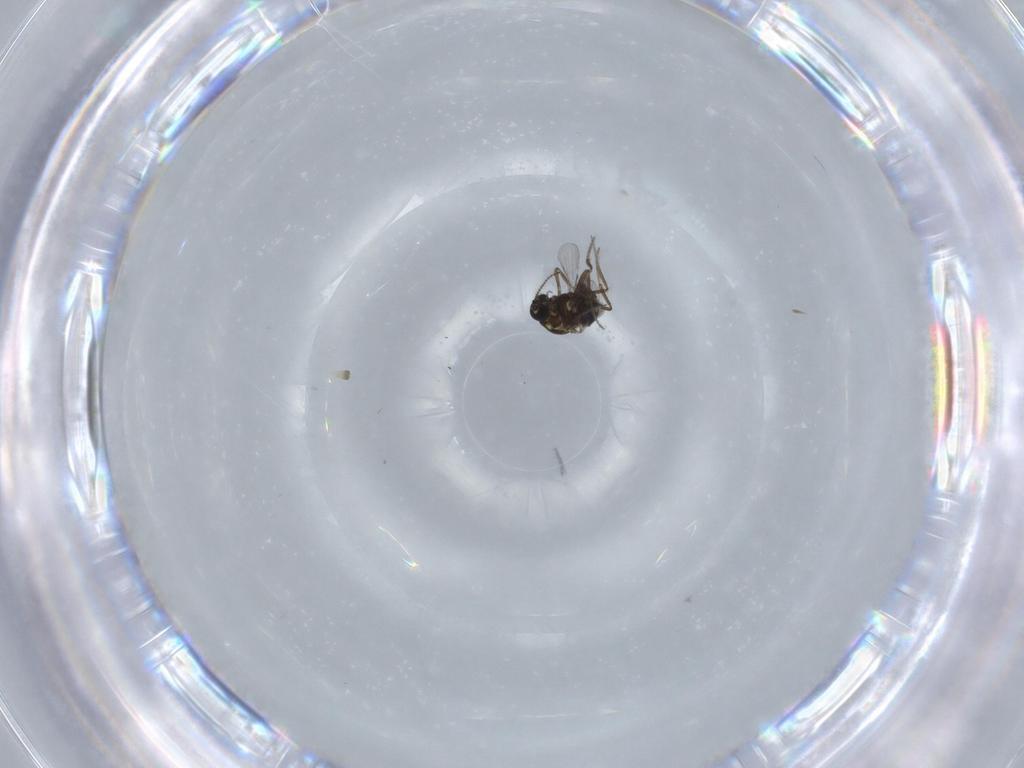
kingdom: Animalia
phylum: Arthropoda
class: Insecta
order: Diptera
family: Ceratopogonidae
